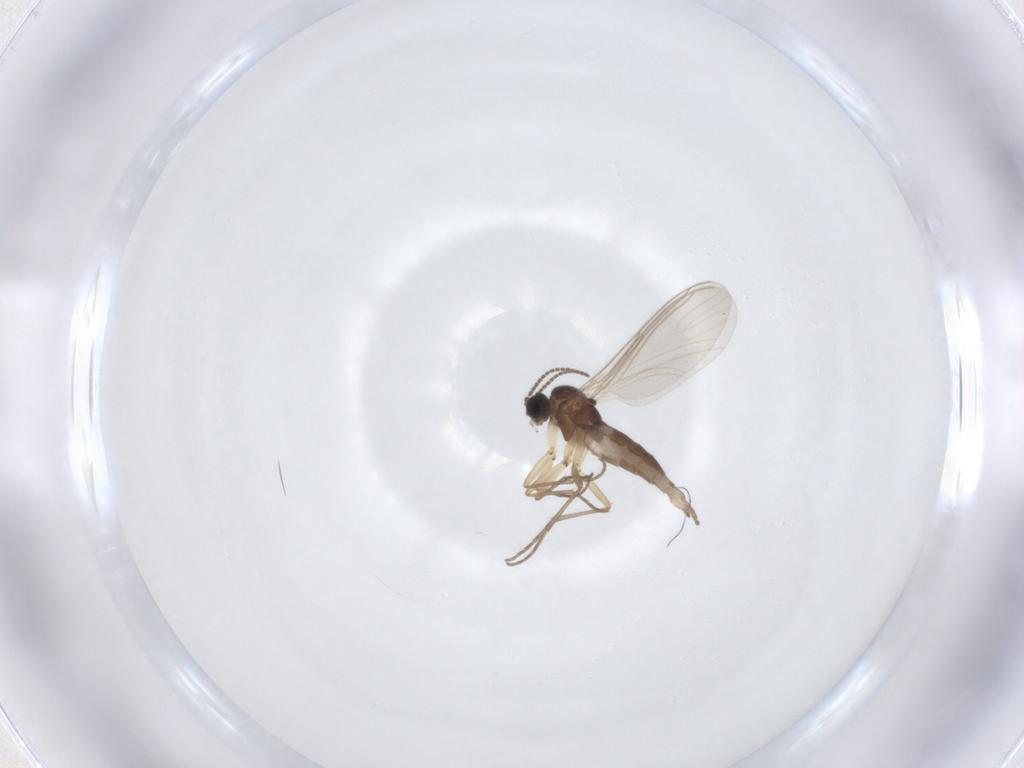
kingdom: Animalia
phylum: Arthropoda
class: Insecta
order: Diptera
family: Sciaridae
